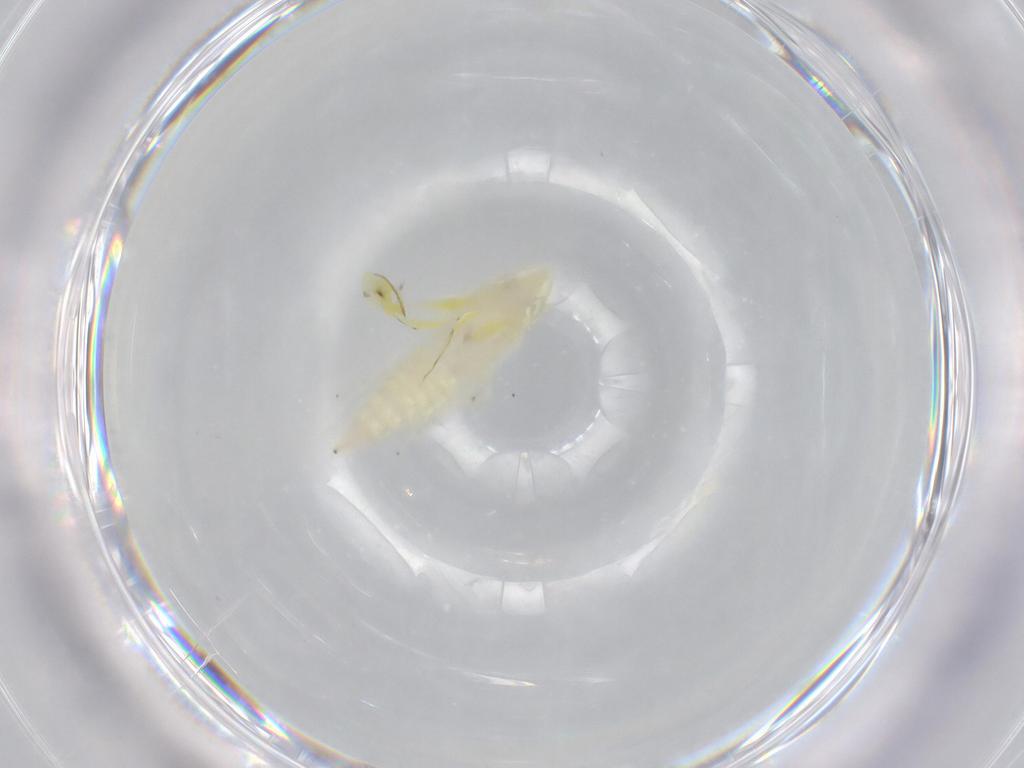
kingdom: Animalia
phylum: Arthropoda
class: Insecta
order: Hemiptera
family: Cicadellidae
